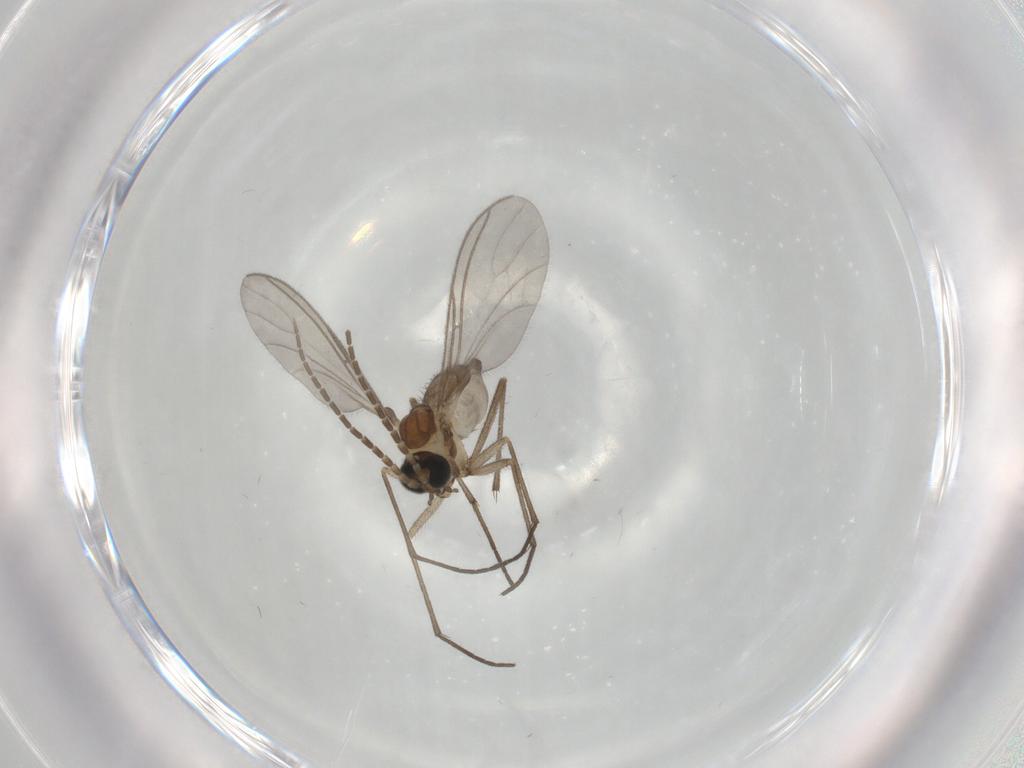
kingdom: Animalia
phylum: Arthropoda
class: Insecta
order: Diptera
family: Sciaridae
